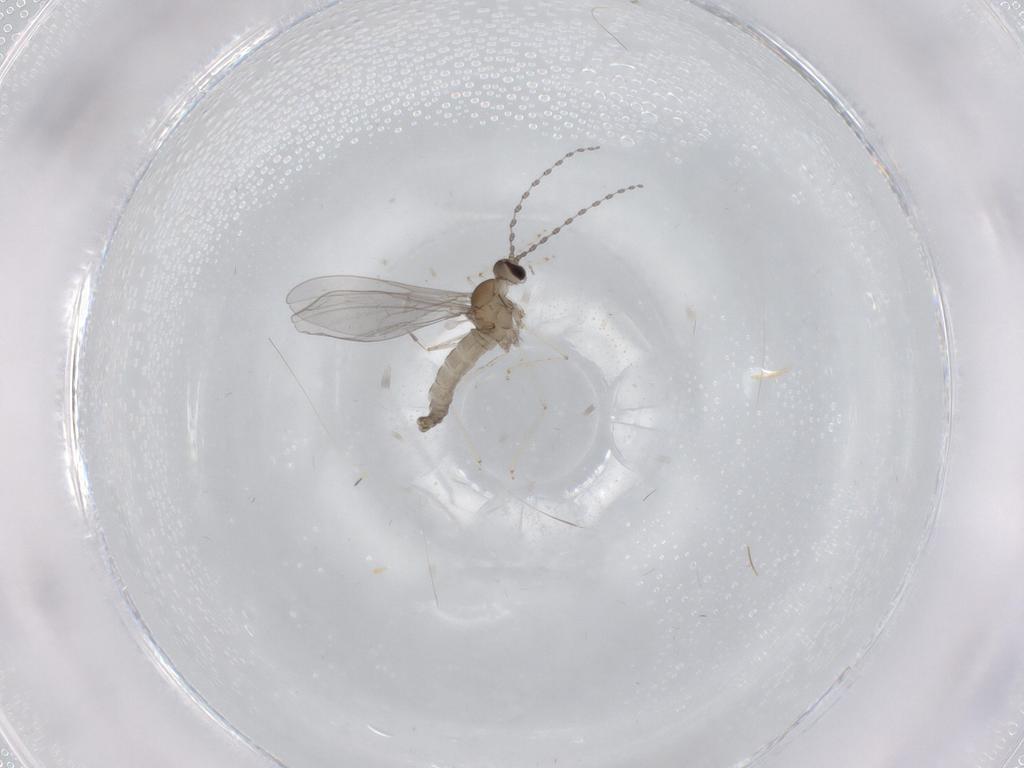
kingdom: Animalia
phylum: Arthropoda
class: Insecta
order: Diptera
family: Cecidomyiidae
